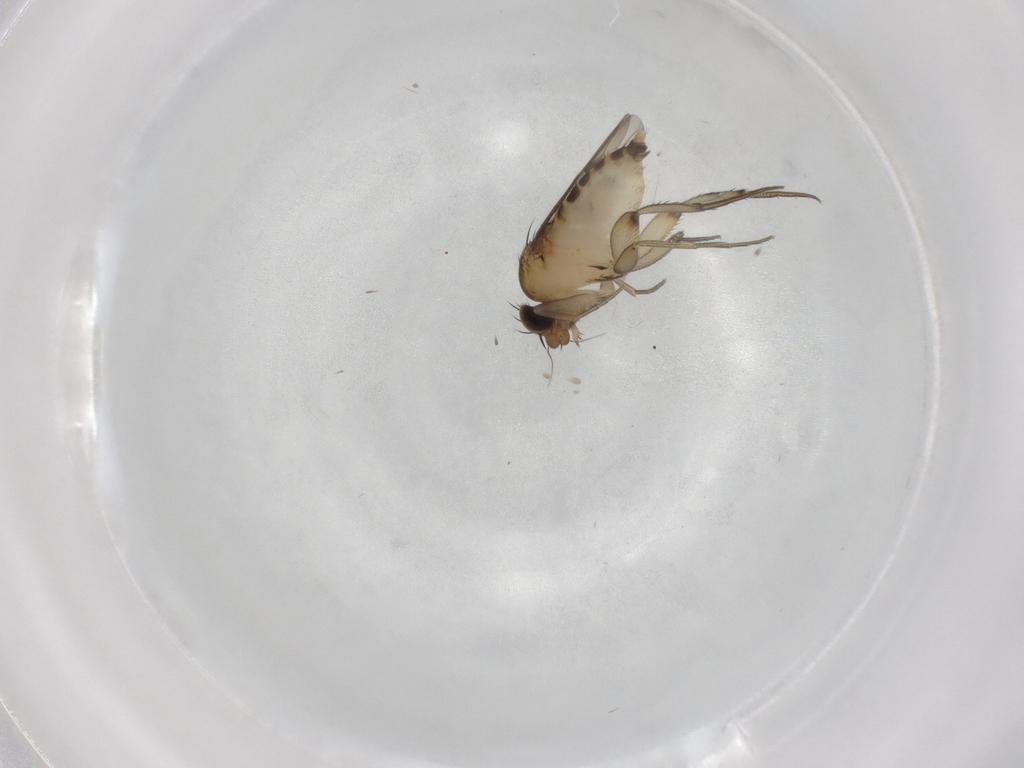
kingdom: Animalia
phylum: Arthropoda
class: Insecta
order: Diptera
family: Phoridae
